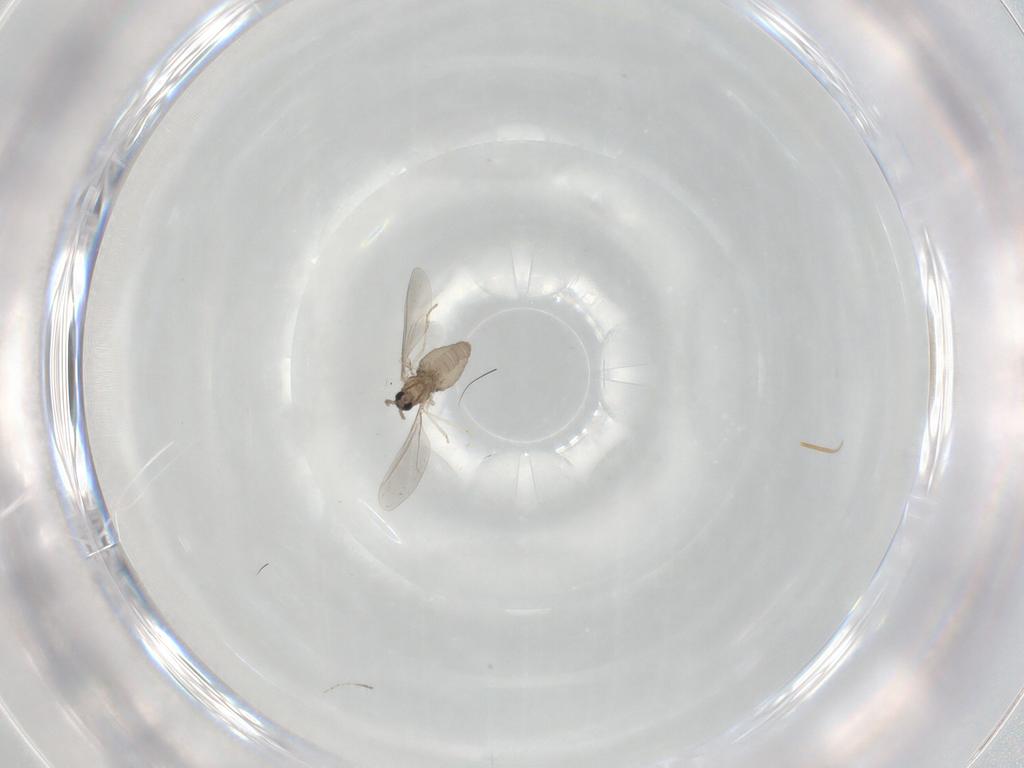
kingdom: Animalia
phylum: Arthropoda
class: Insecta
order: Diptera
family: Cecidomyiidae
